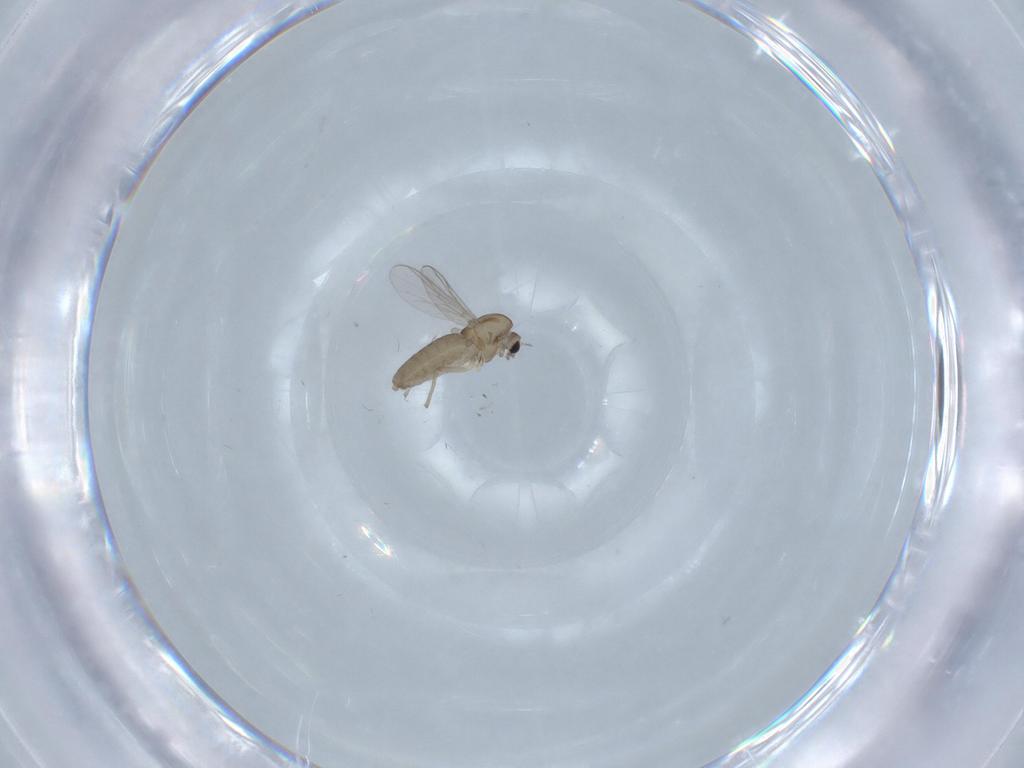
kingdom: Animalia
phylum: Arthropoda
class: Insecta
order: Diptera
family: Chironomidae
